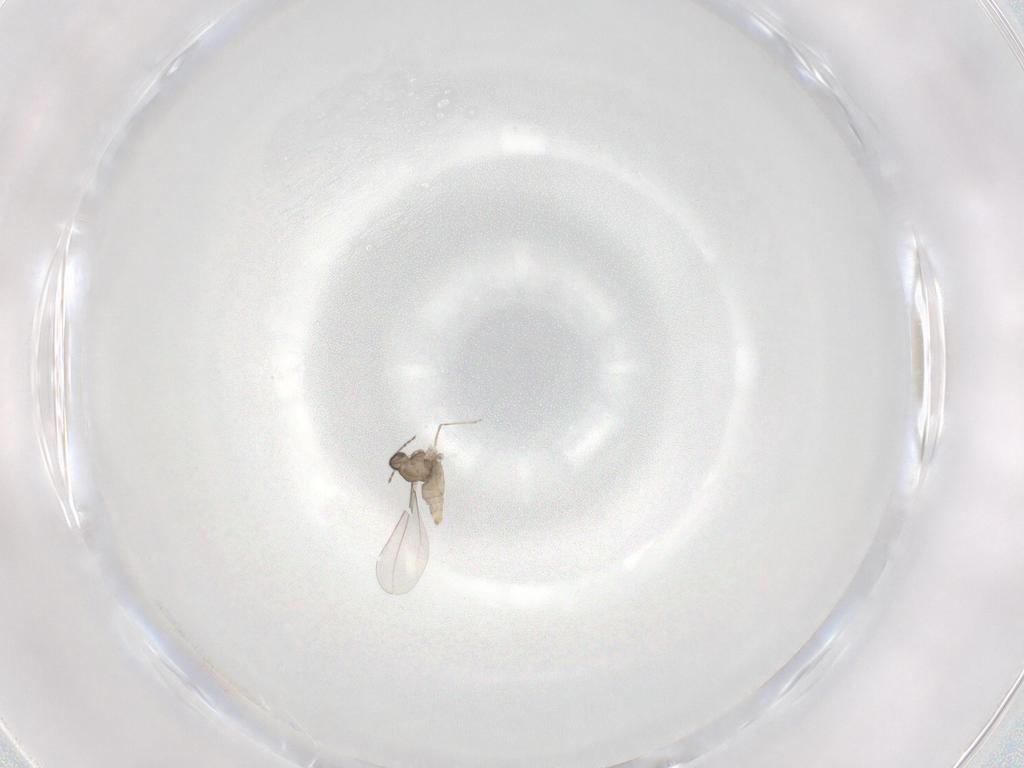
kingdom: Animalia
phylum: Arthropoda
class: Insecta
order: Diptera
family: Cecidomyiidae
